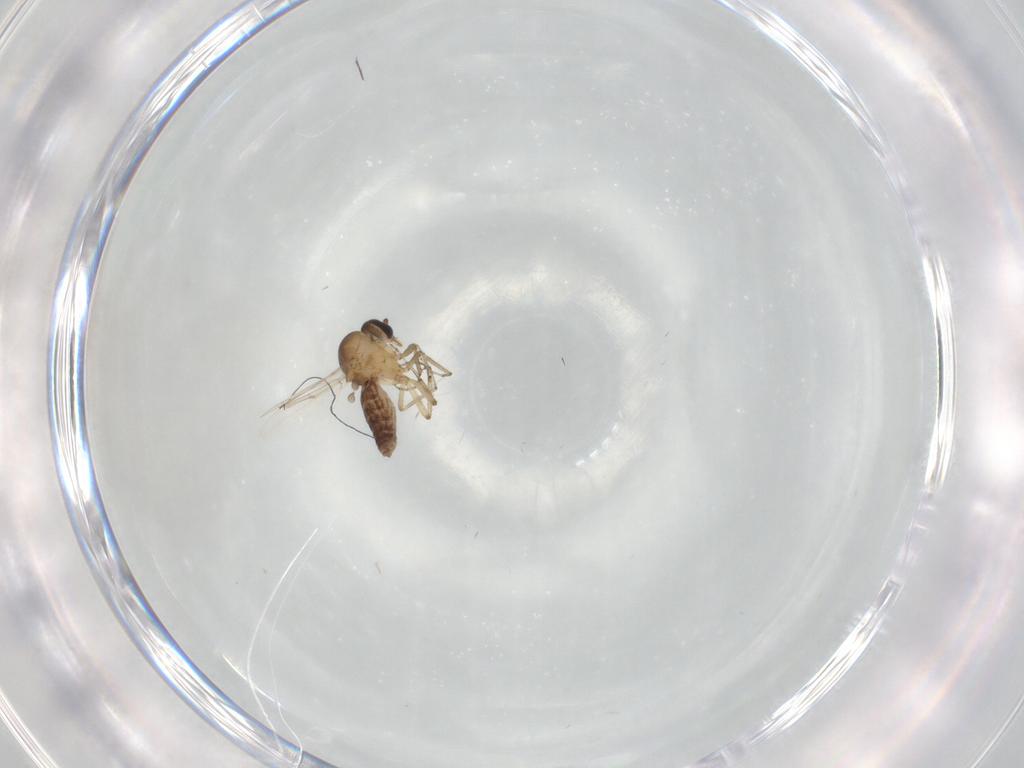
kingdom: Animalia
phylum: Arthropoda
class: Insecta
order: Diptera
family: Ceratopogonidae
